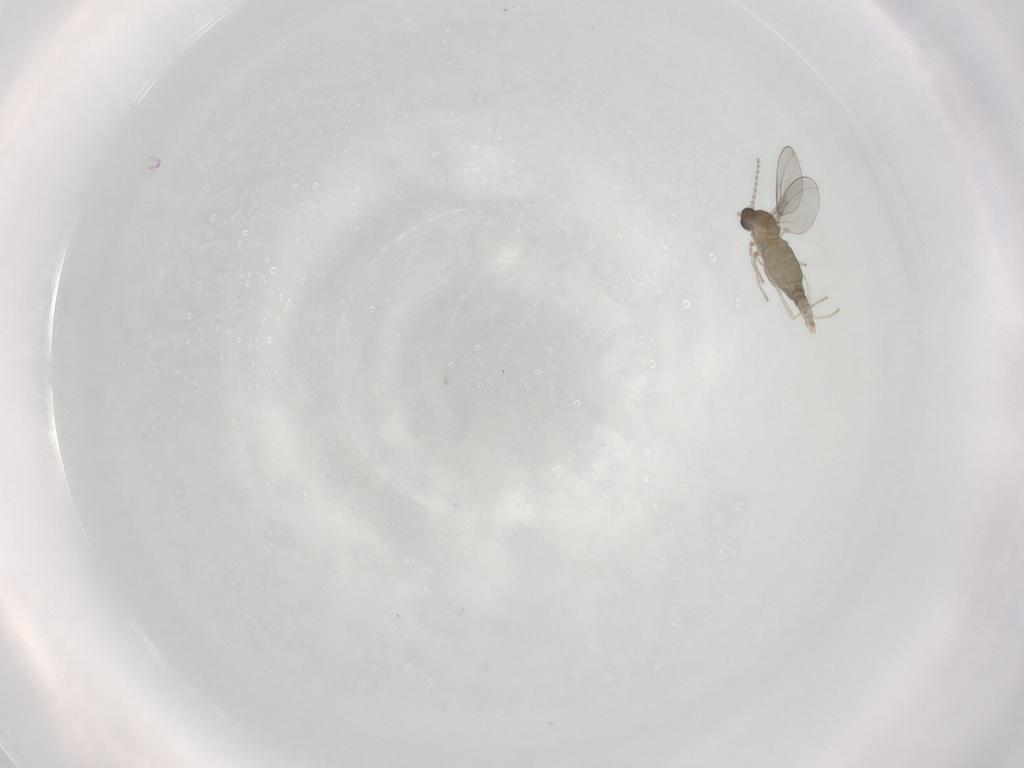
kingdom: Animalia
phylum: Arthropoda
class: Insecta
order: Diptera
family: Cecidomyiidae
